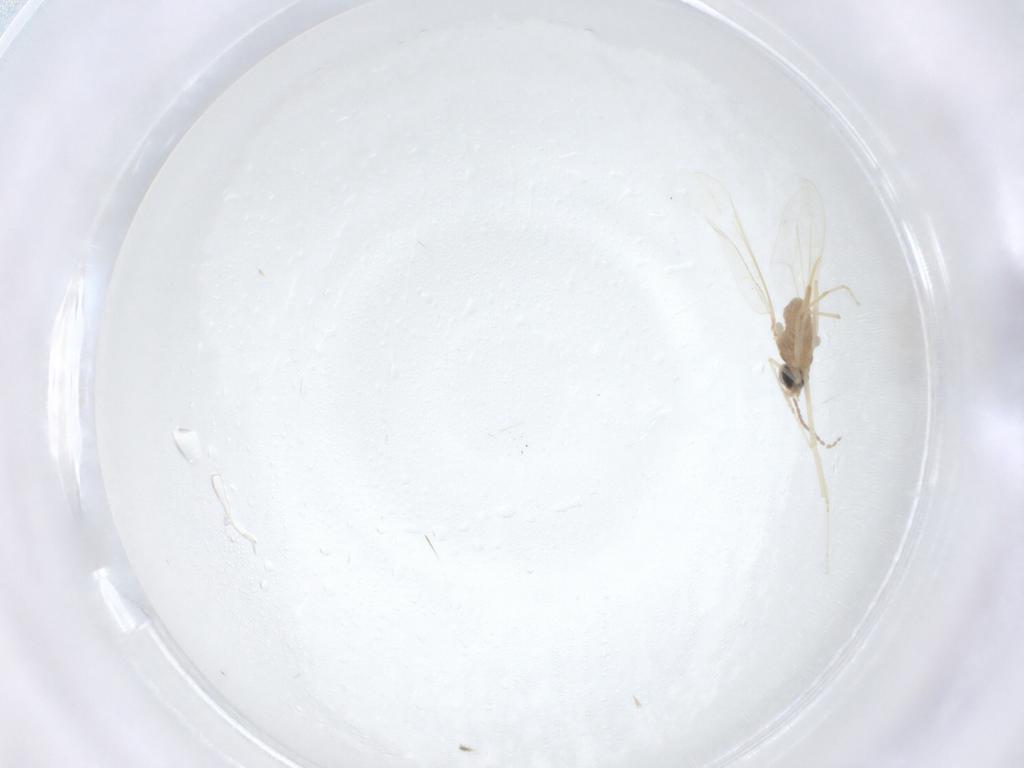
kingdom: Animalia
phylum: Arthropoda
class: Insecta
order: Diptera
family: Cecidomyiidae
